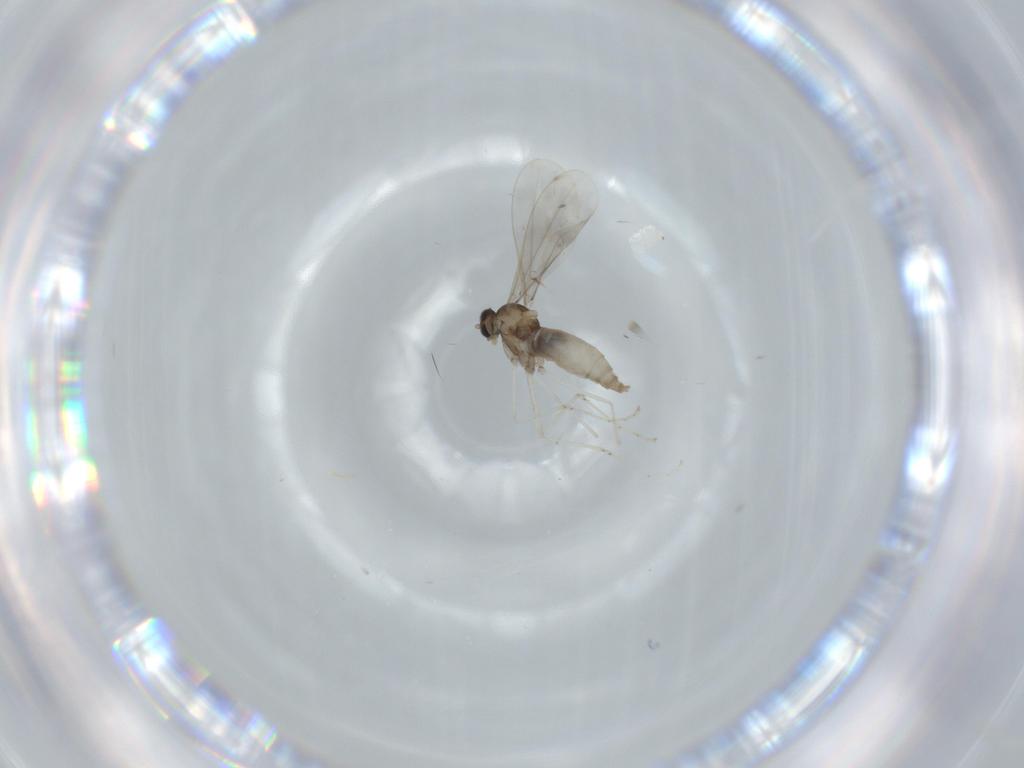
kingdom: Animalia
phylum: Arthropoda
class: Insecta
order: Diptera
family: Cecidomyiidae
